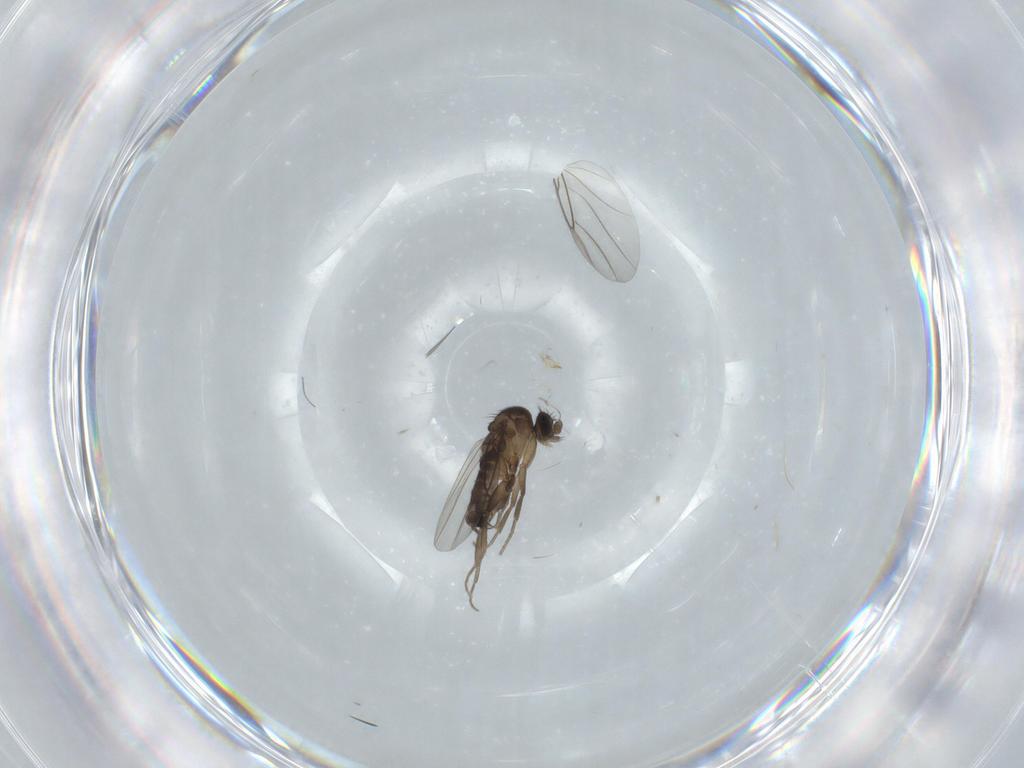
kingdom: Animalia
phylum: Arthropoda
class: Insecta
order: Diptera
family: Phoridae
